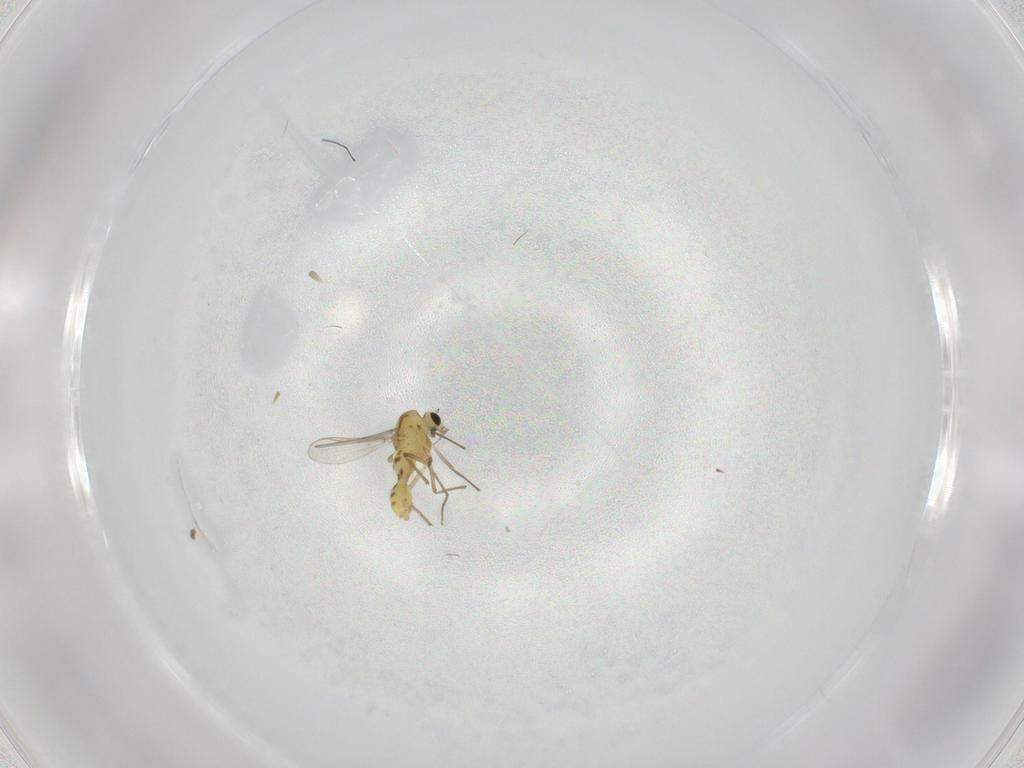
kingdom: Animalia
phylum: Arthropoda
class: Insecta
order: Diptera
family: Chironomidae
